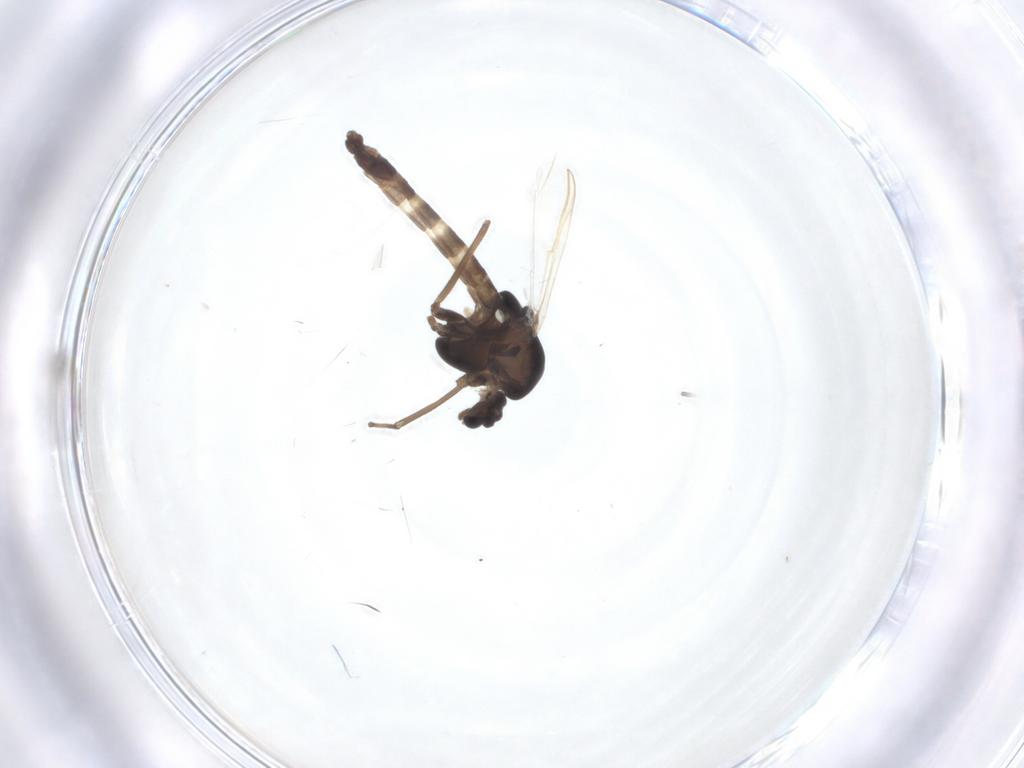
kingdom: Animalia
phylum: Arthropoda
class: Insecta
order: Diptera
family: Chironomidae
